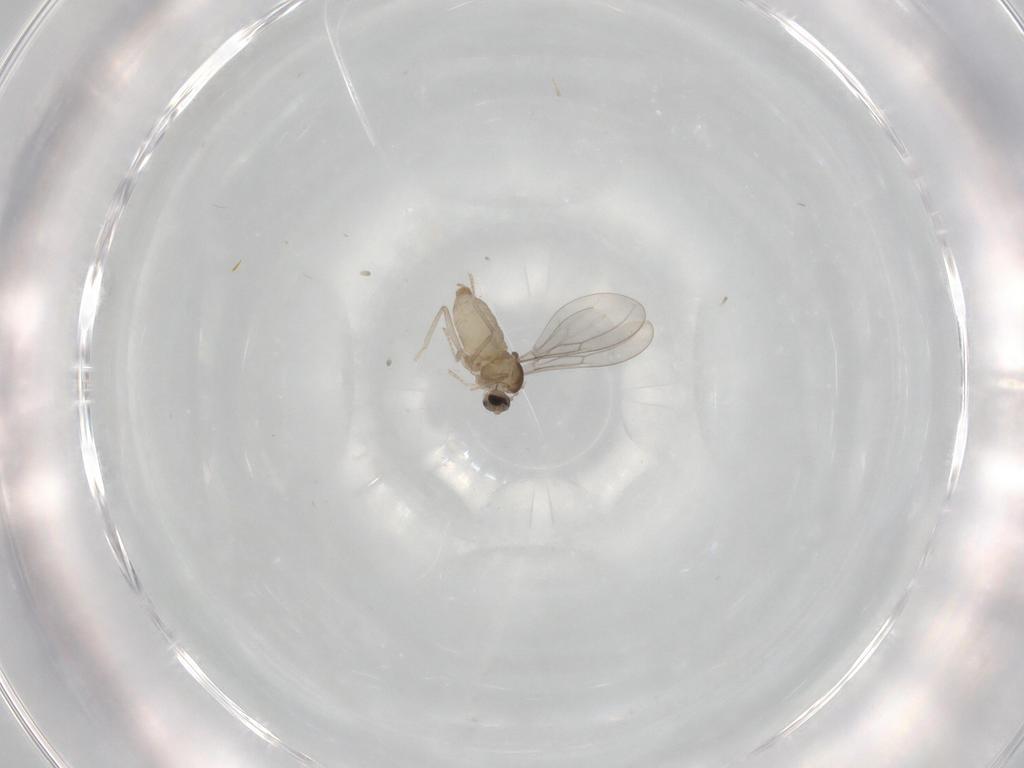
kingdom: Animalia
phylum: Arthropoda
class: Insecta
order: Diptera
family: Cecidomyiidae
